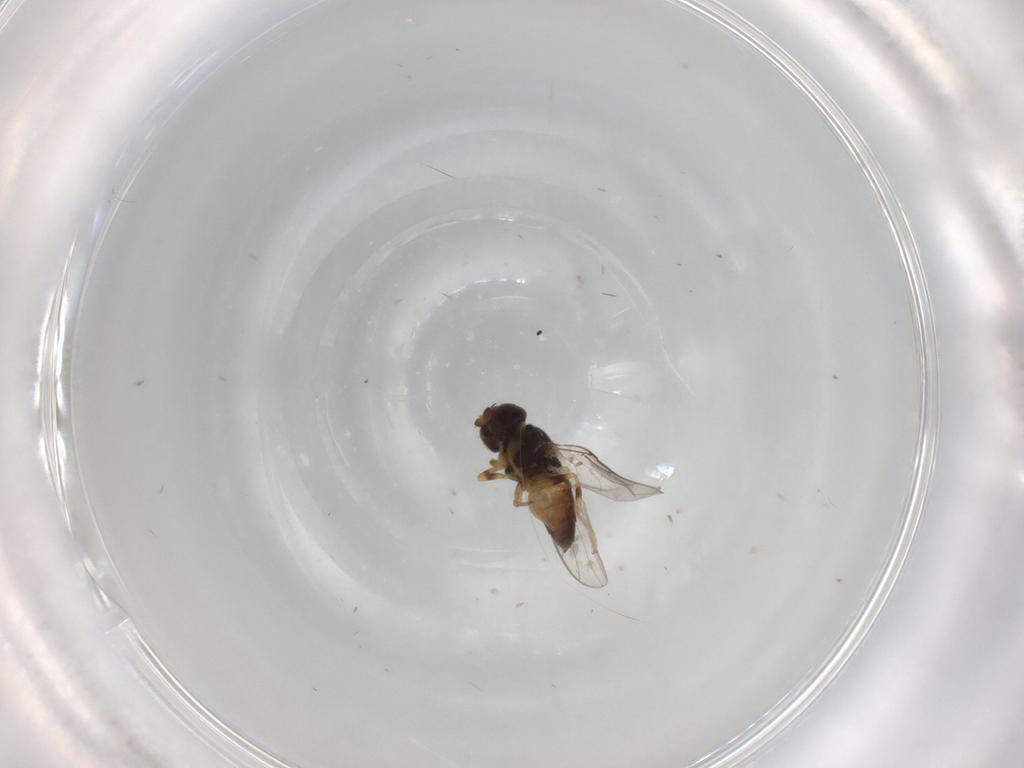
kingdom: Animalia
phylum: Arthropoda
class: Insecta
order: Diptera
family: Chloropidae
